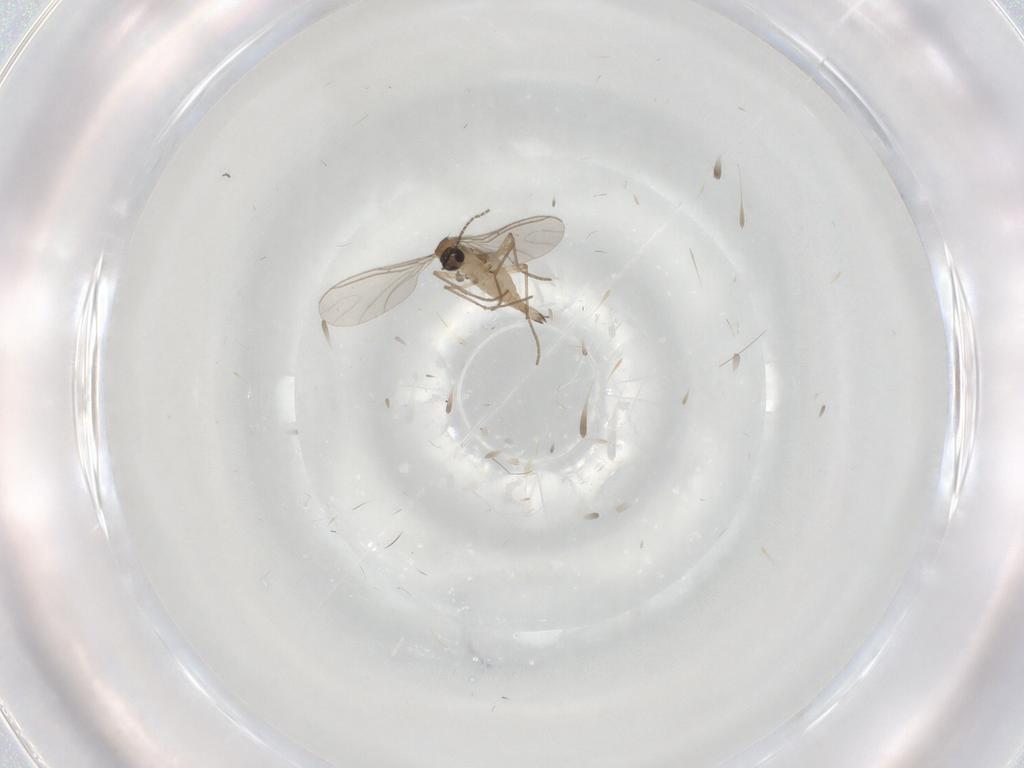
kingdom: Animalia
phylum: Arthropoda
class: Insecta
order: Diptera
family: Sciaridae
